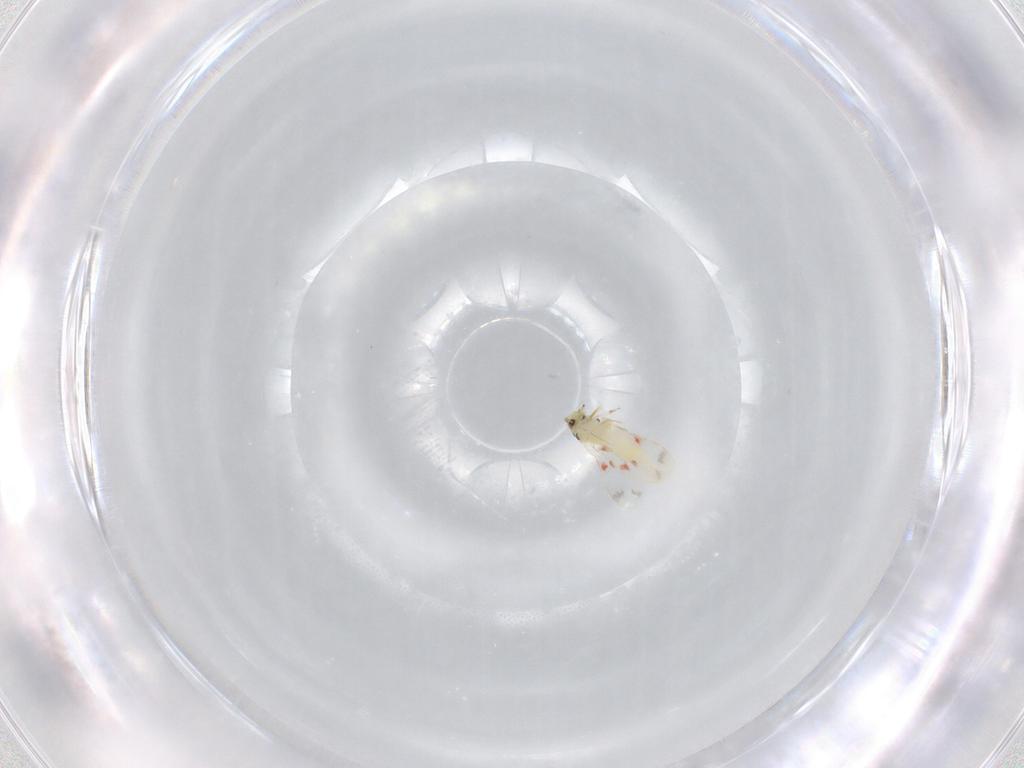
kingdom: Animalia
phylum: Arthropoda
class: Insecta
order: Hemiptera
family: Aleyrodidae
